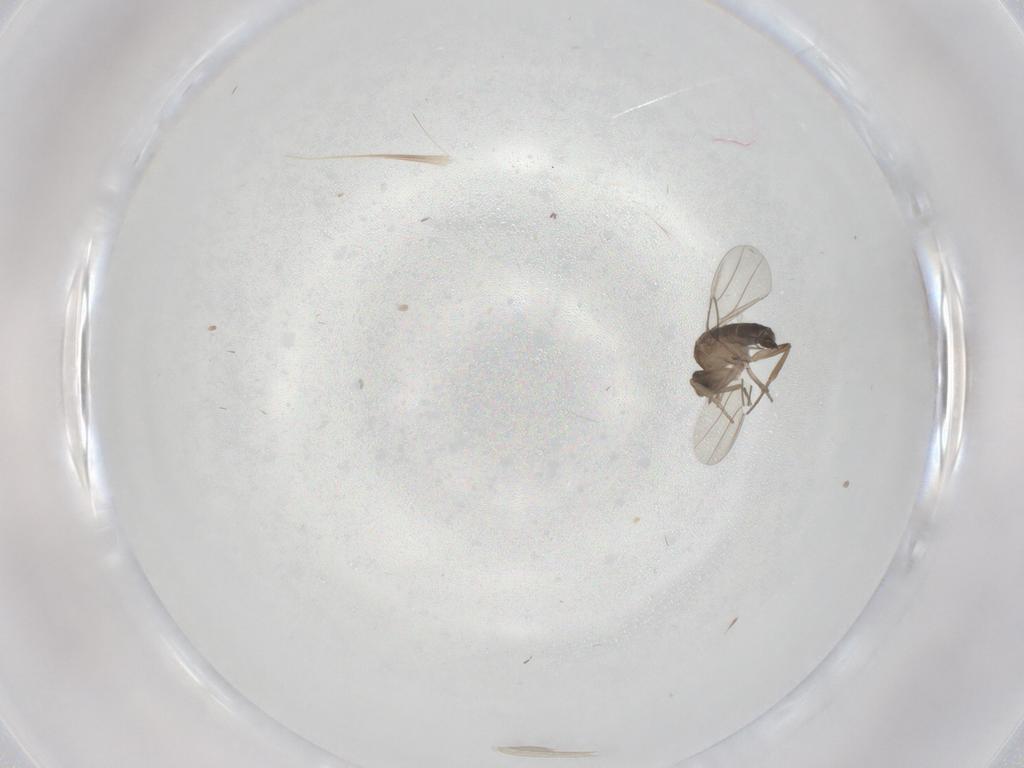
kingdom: Animalia
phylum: Arthropoda
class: Insecta
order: Diptera
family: Phoridae
